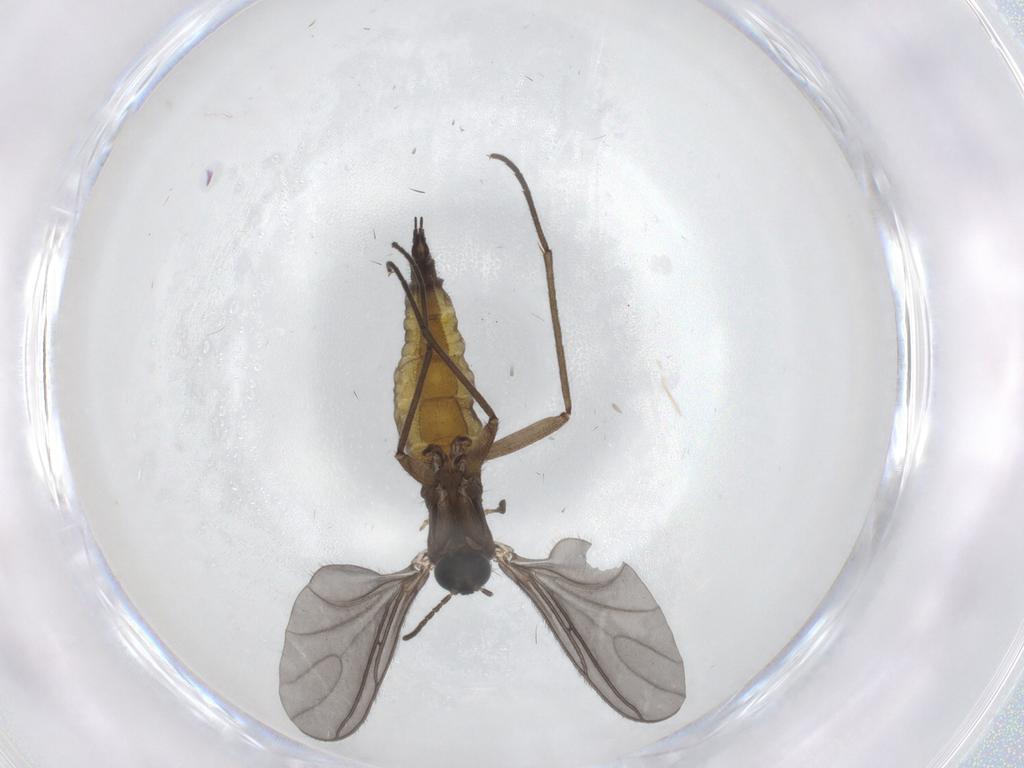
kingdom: Animalia
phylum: Arthropoda
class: Insecta
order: Diptera
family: Sciaridae
